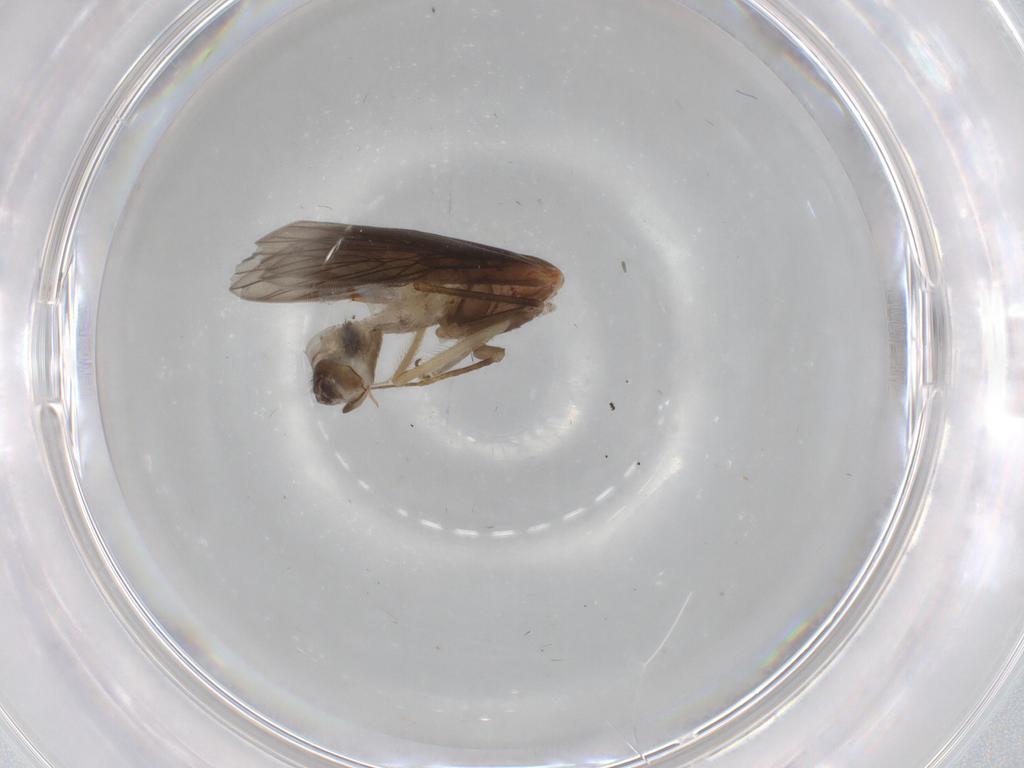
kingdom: Animalia
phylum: Arthropoda
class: Insecta
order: Psocodea
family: Lepidopsocidae
